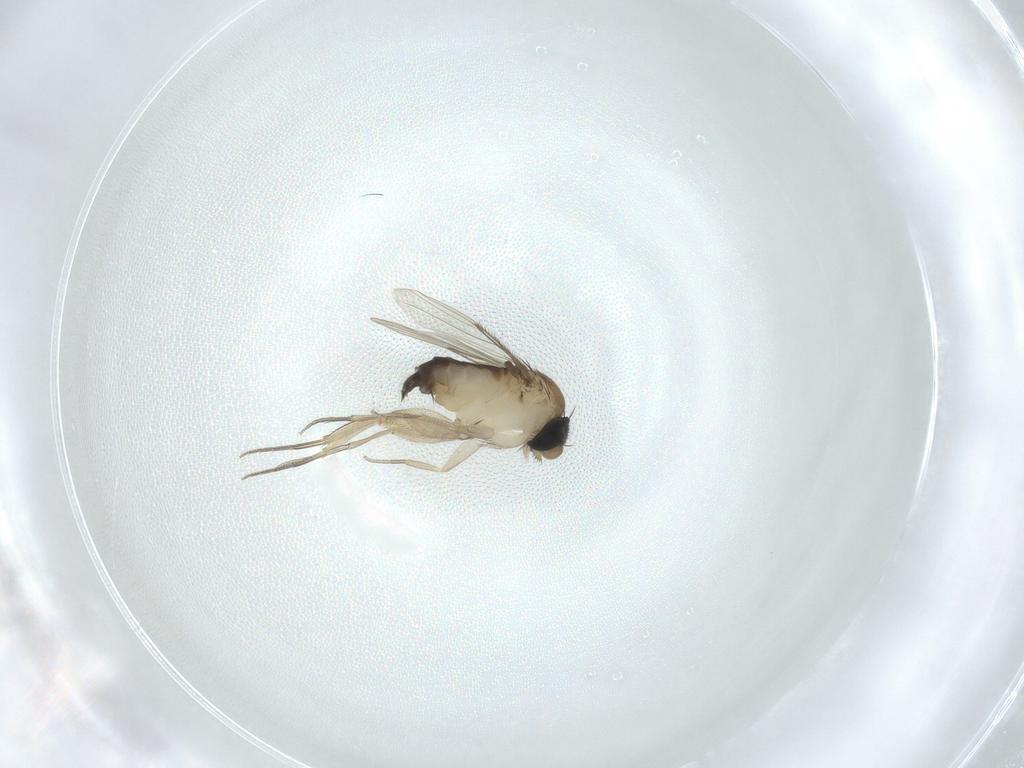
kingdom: Animalia
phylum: Arthropoda
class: Insecta
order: Diptera
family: Phoridae
